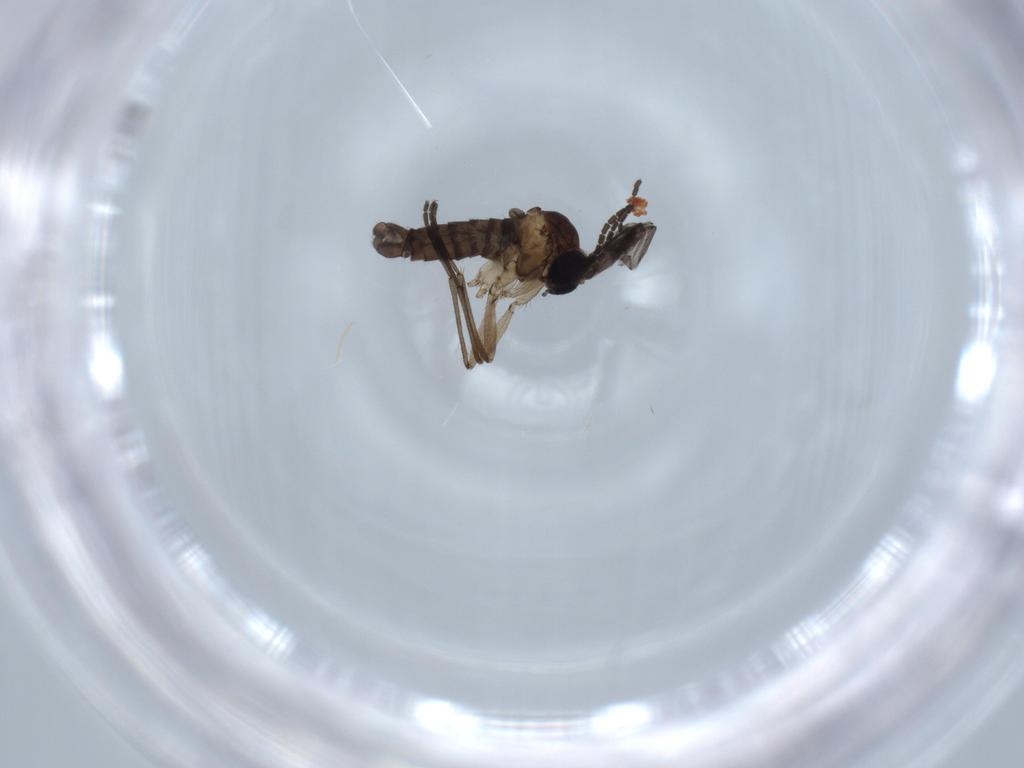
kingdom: Animalia
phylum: Arthropoda
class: Insecta
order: Diptera
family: Sciaridae
